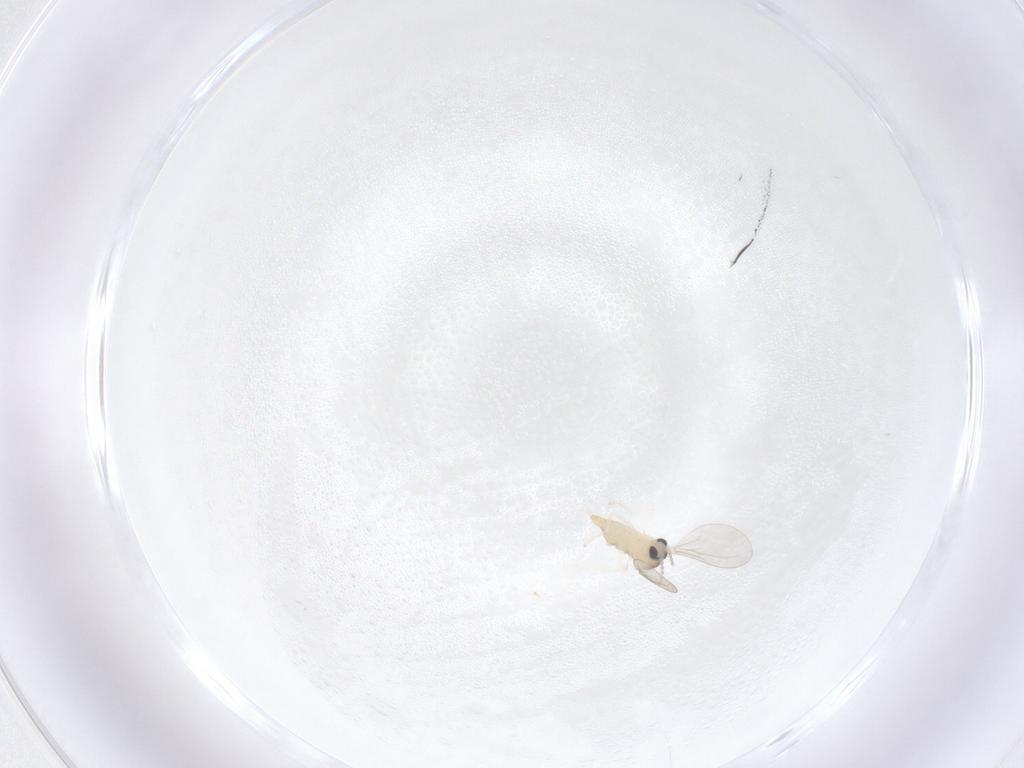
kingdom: Animalia
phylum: Arthropoda
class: Insecta
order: Diptera
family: Cecidomyiidae
